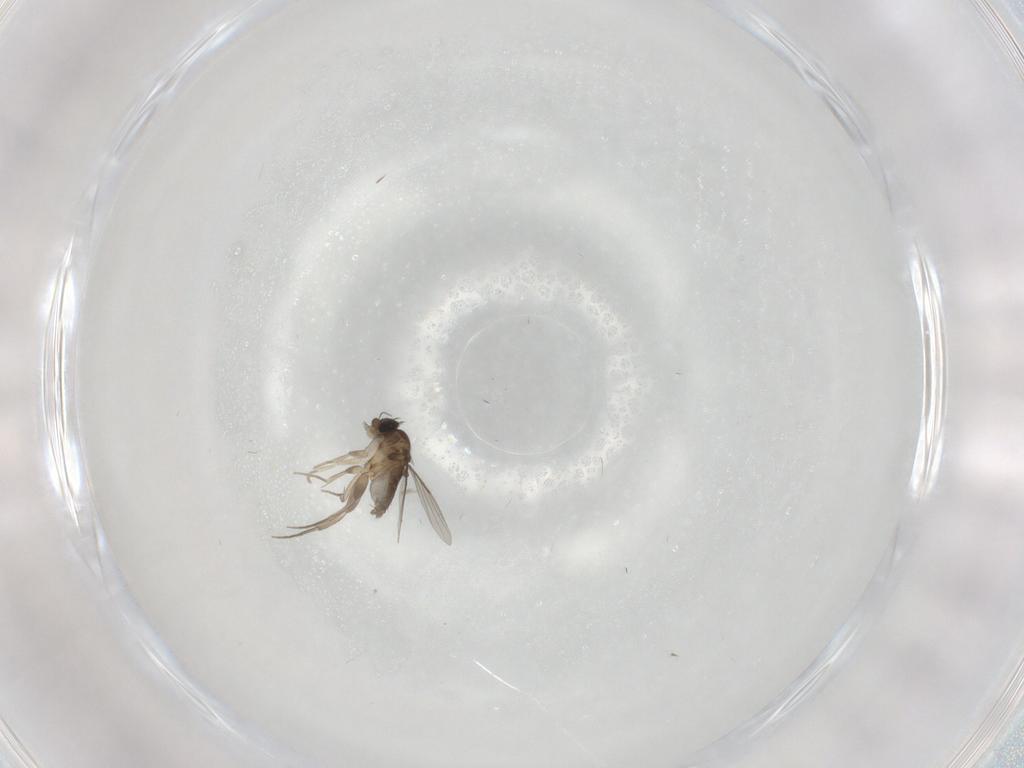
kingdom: Animalia
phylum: Arthropoda
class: Insecta
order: Diptera
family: Phoridae
